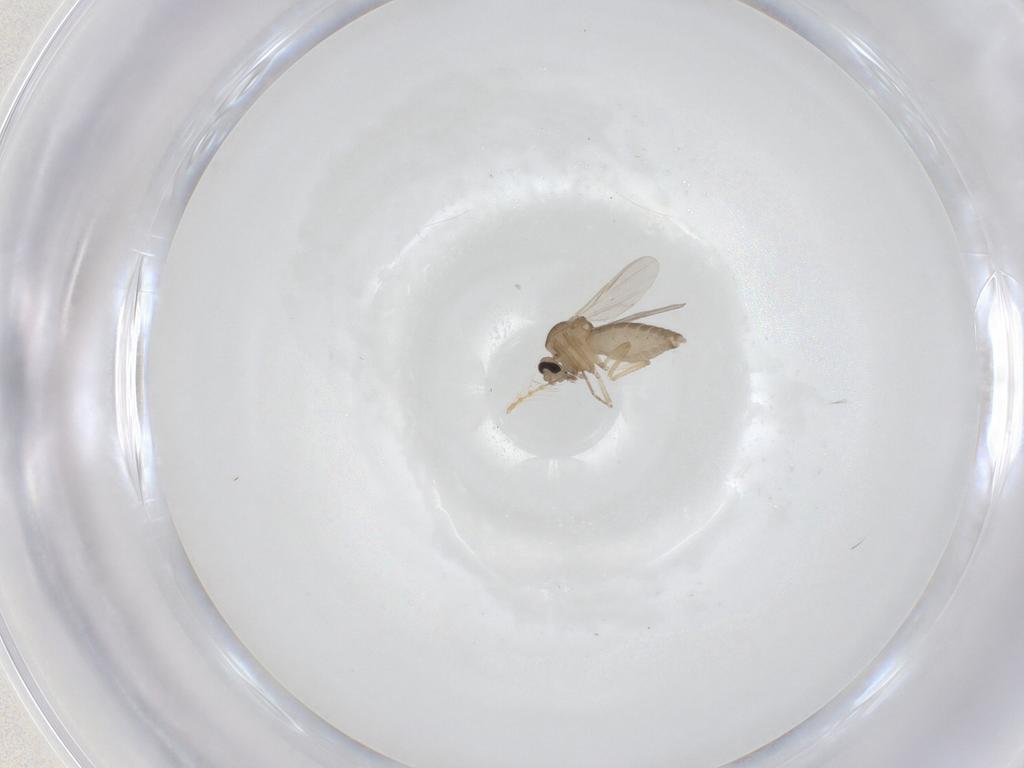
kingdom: Animalia
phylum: Arthropoda
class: Insecta
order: Diptera
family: Ceratopogonidae
